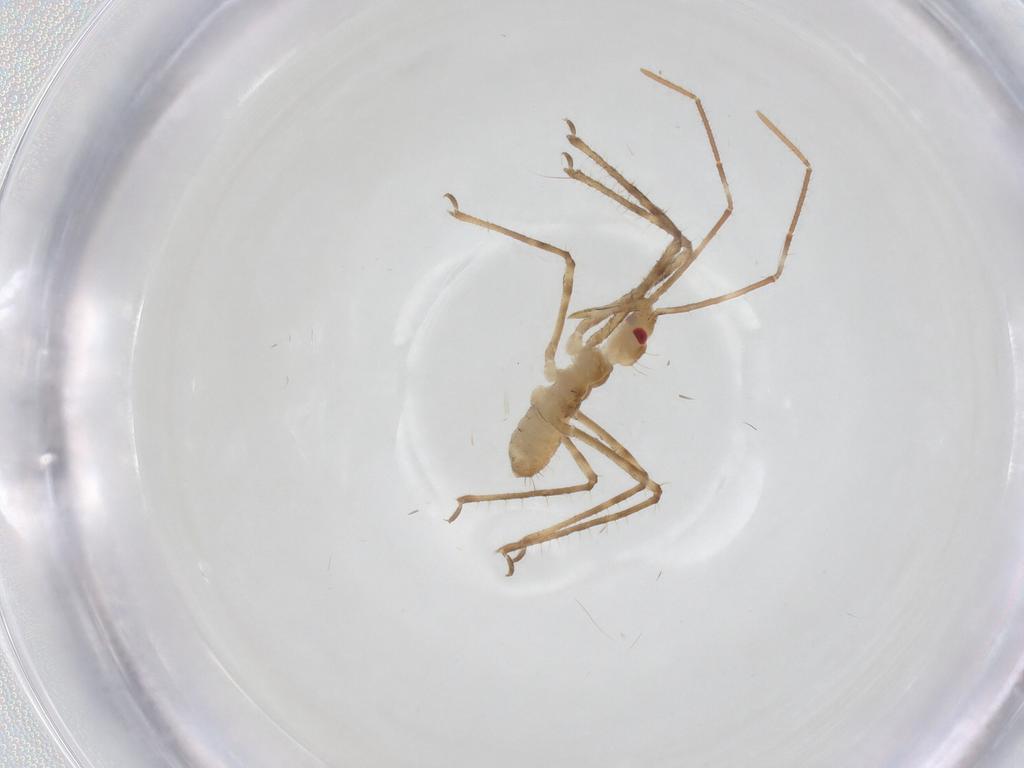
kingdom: Animalia
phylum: Arthropoda
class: Insecta
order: Hemiptera
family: Reduviidae
